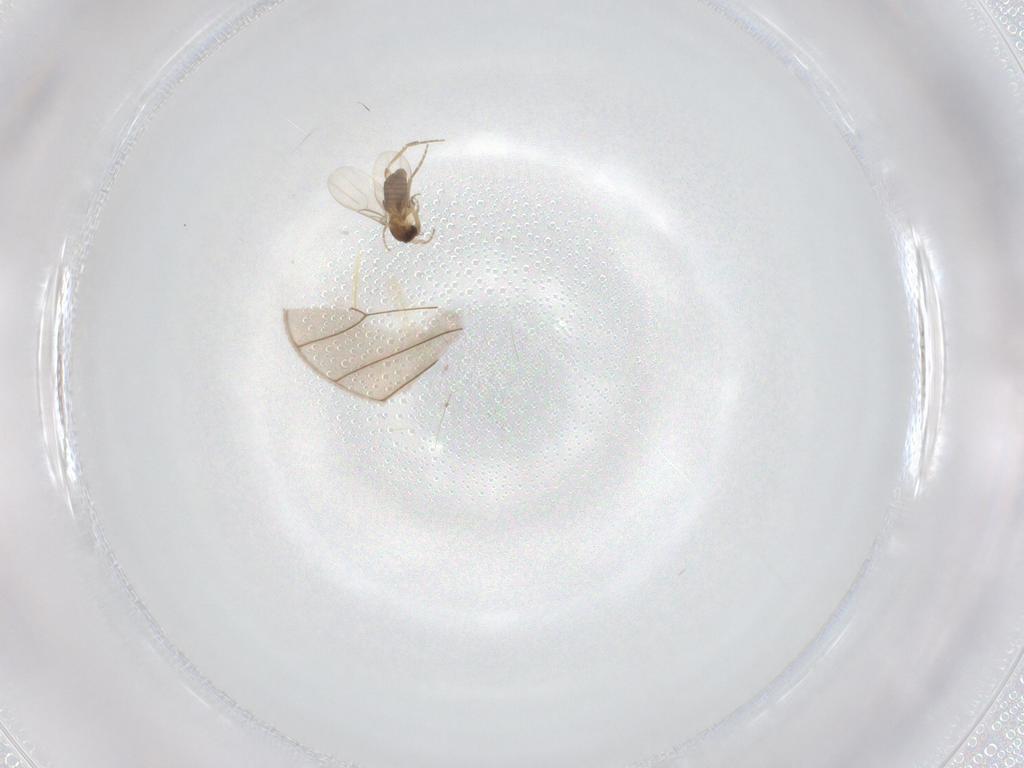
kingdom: Animalia
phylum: Arthropoda
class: Insecta
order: Diptera
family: Phoridae
